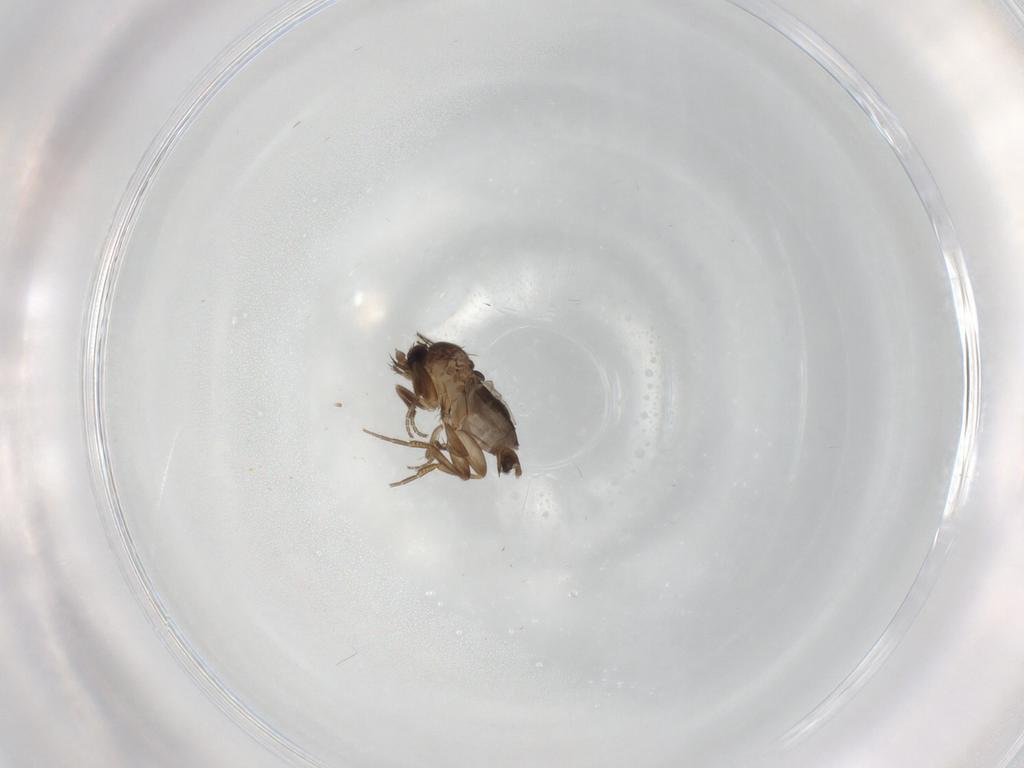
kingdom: Animalia
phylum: Arthropoda
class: Insecta
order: Diptera
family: Phoridae
